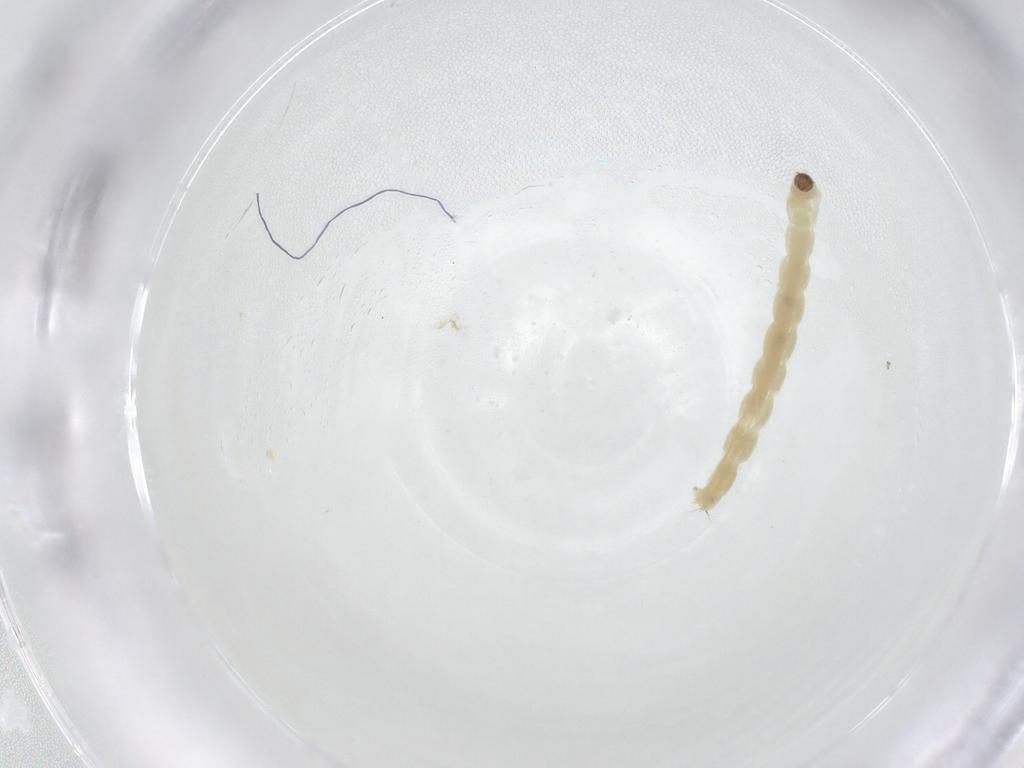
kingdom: Animalia
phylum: Arthropoda
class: Insecta
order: Diptera
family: Chironomidae
